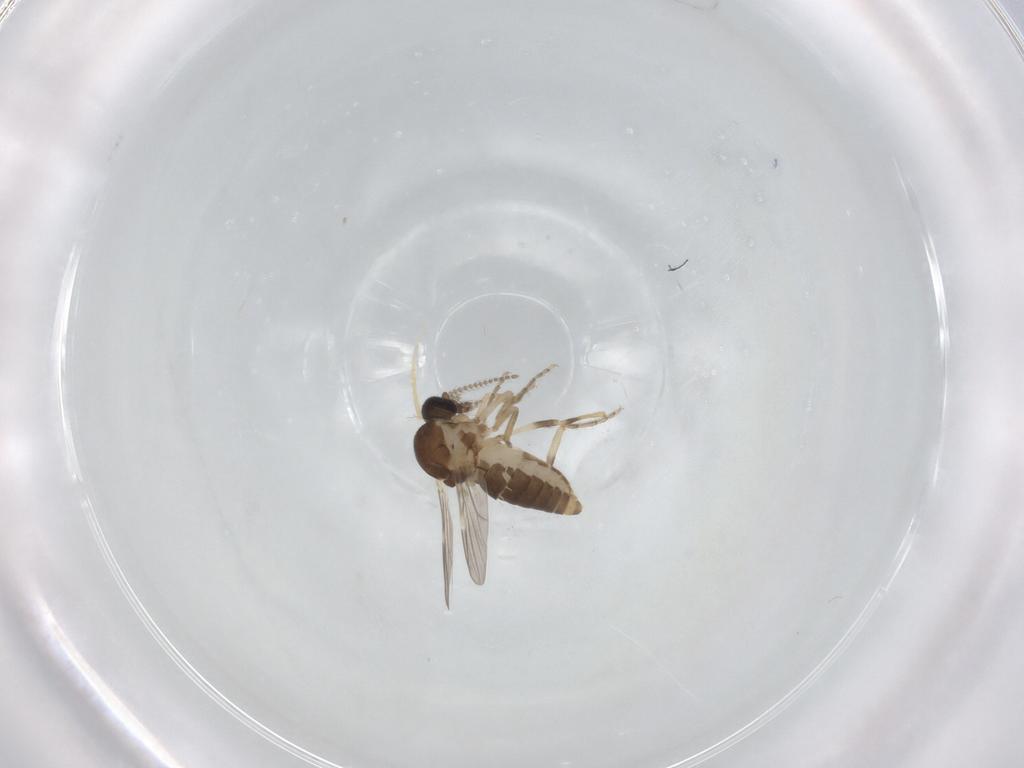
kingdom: Animalia
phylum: Arthropoda
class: Insecta
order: Diptera
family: Ceratopogonidae
